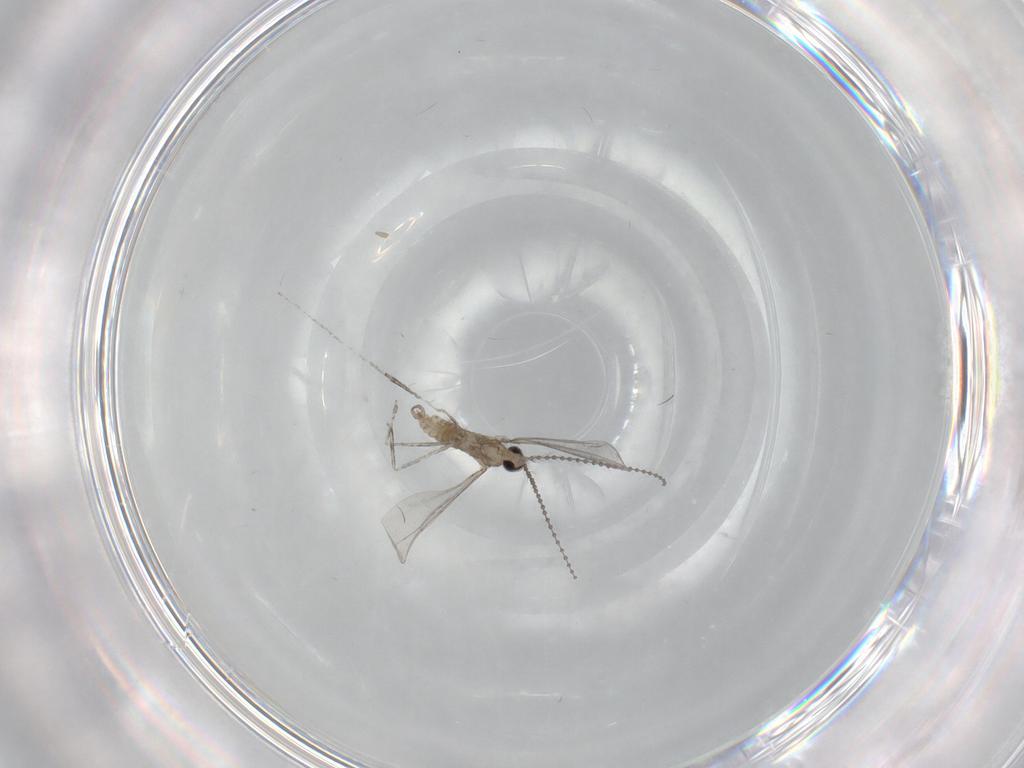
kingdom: Animalia
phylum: Arthropoda
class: Insecta
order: Diptera
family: Cecidomyiidae
